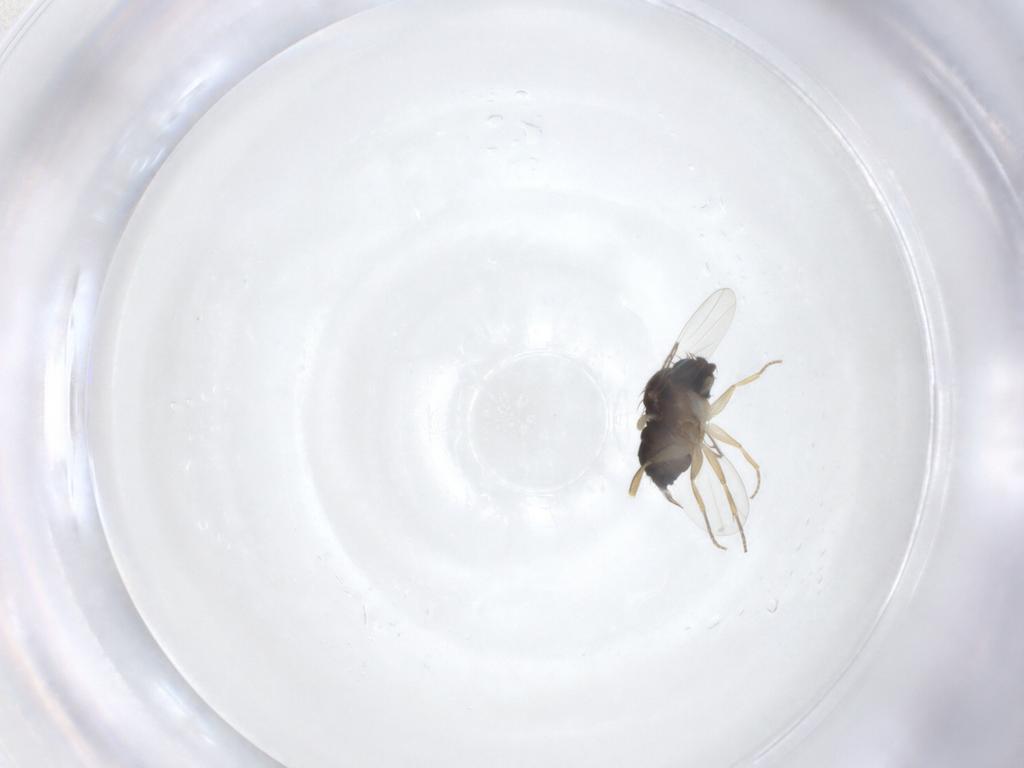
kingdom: Animalia
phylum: Arthropoda
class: Insecta
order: Diptera
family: Phoridae
